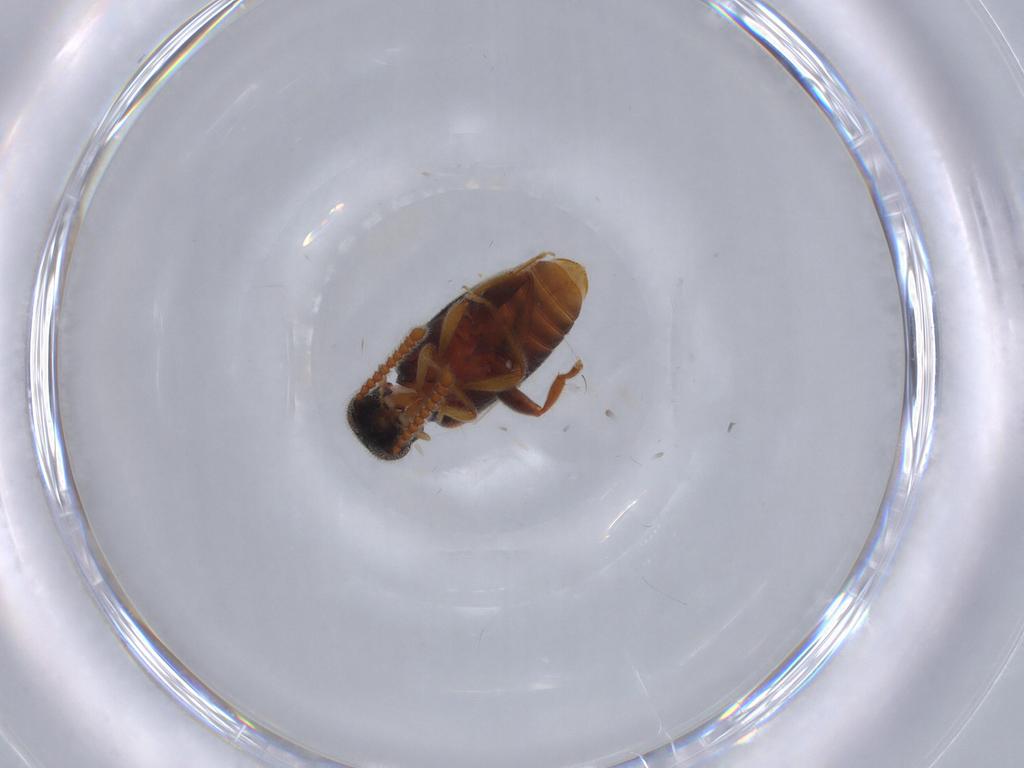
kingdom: Animalia
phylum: Arthropoda
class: Insecta
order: Coleoptera
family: Aderidae
